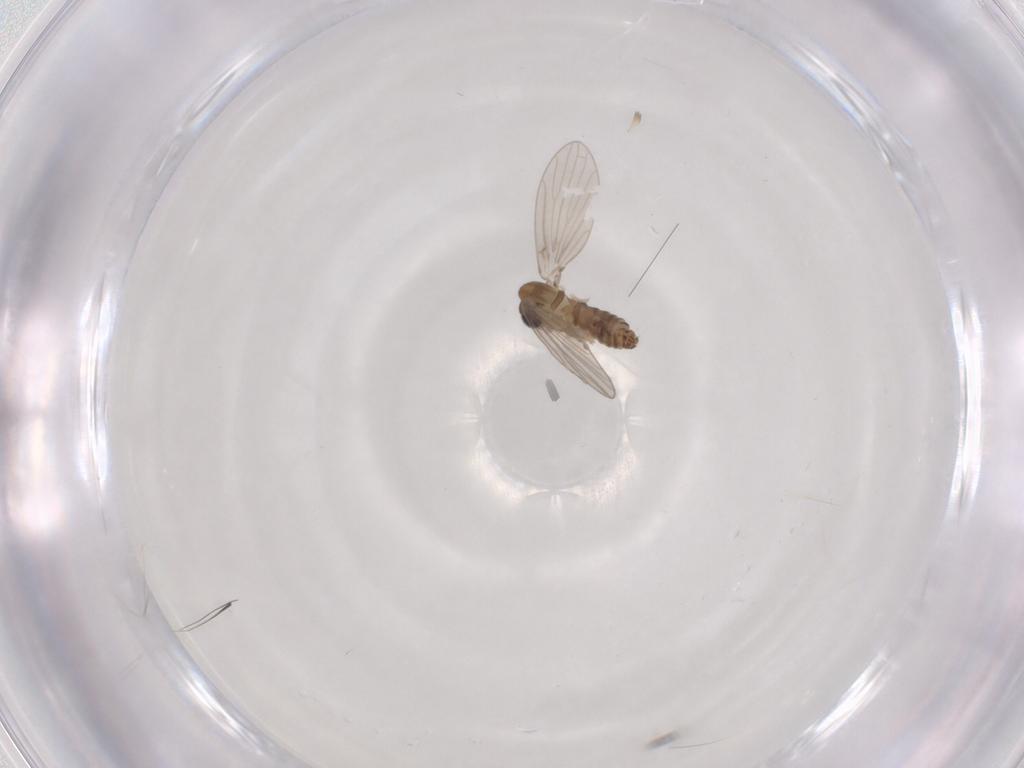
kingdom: Animalia
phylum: Arthropoda
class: Insecta
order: Diptera
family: Psychodidae
